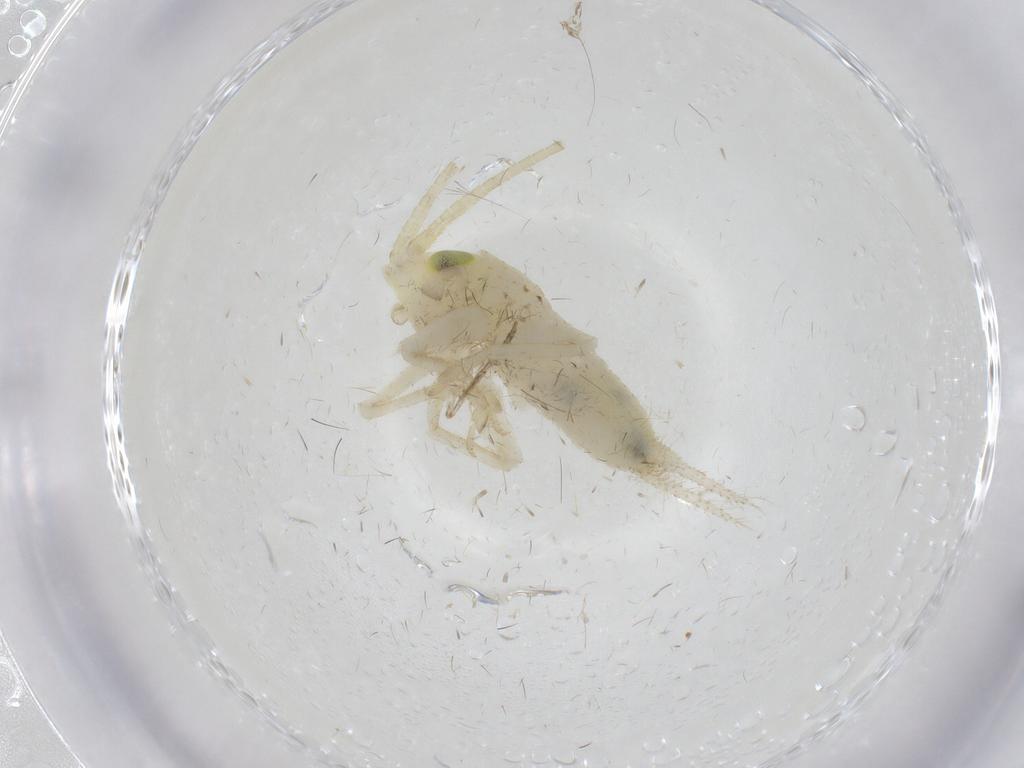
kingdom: Animalia
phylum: Arthropoda
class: Insecta
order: Orthoptera
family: Trigonidiidae
